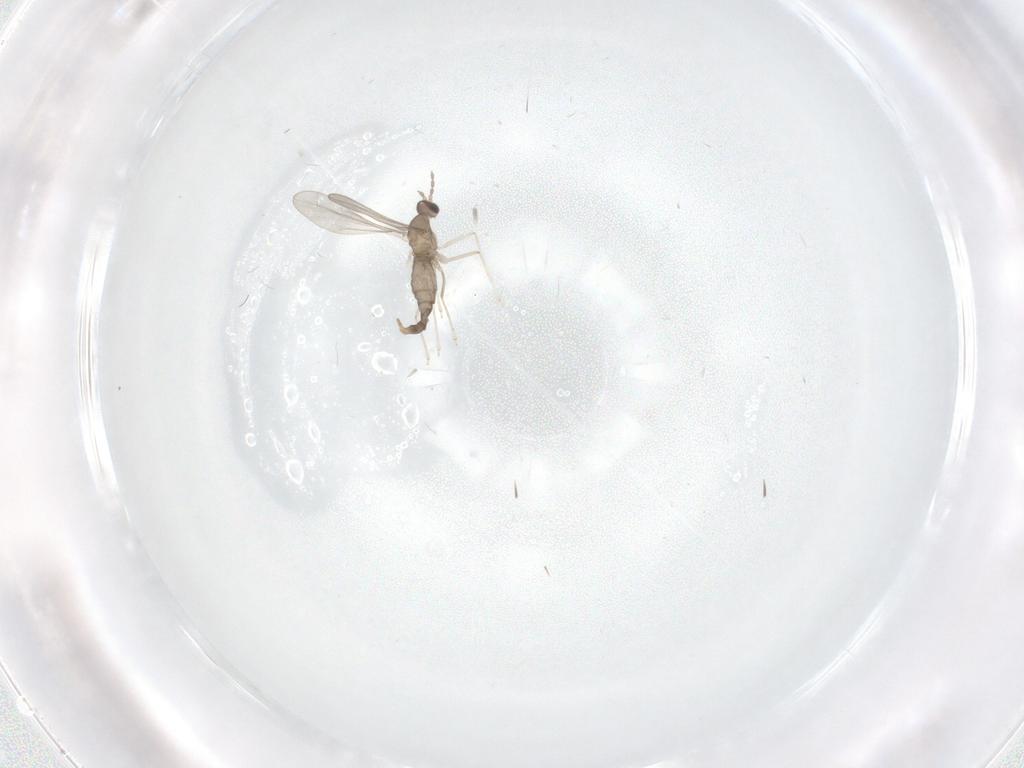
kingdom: Animalia
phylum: Arthropoda
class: Insecta
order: Diptera
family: Cecidomyiidae
